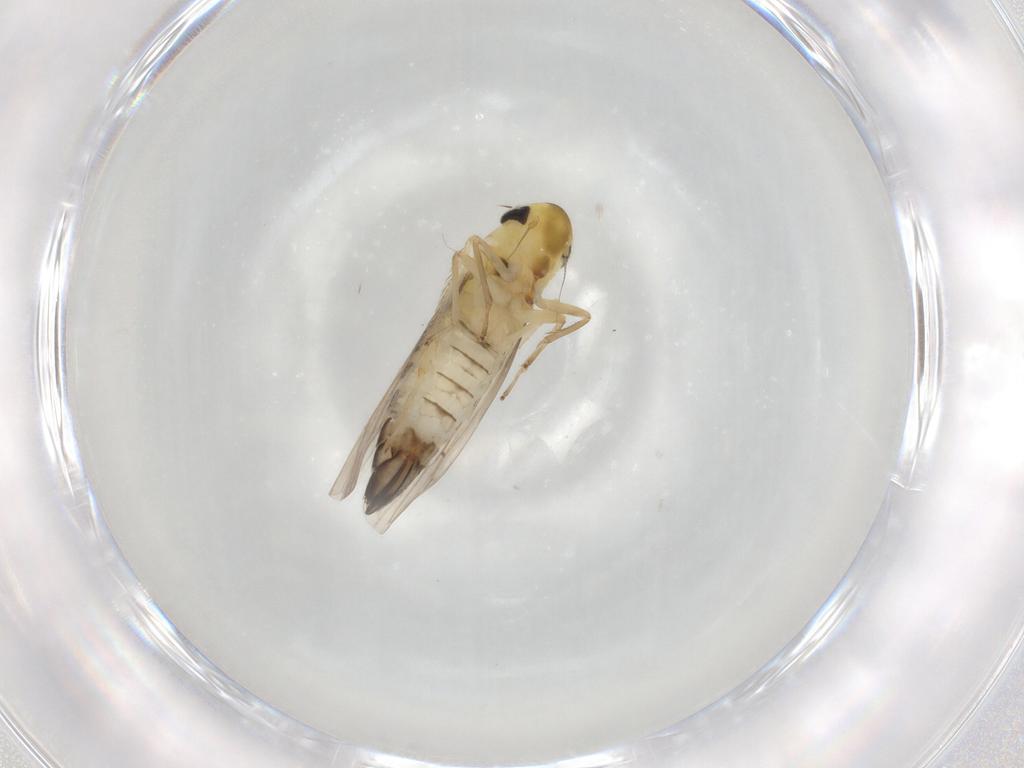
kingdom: Animalia
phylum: Arthropoda
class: Insecta
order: Hemiptera
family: Cicadellidae
